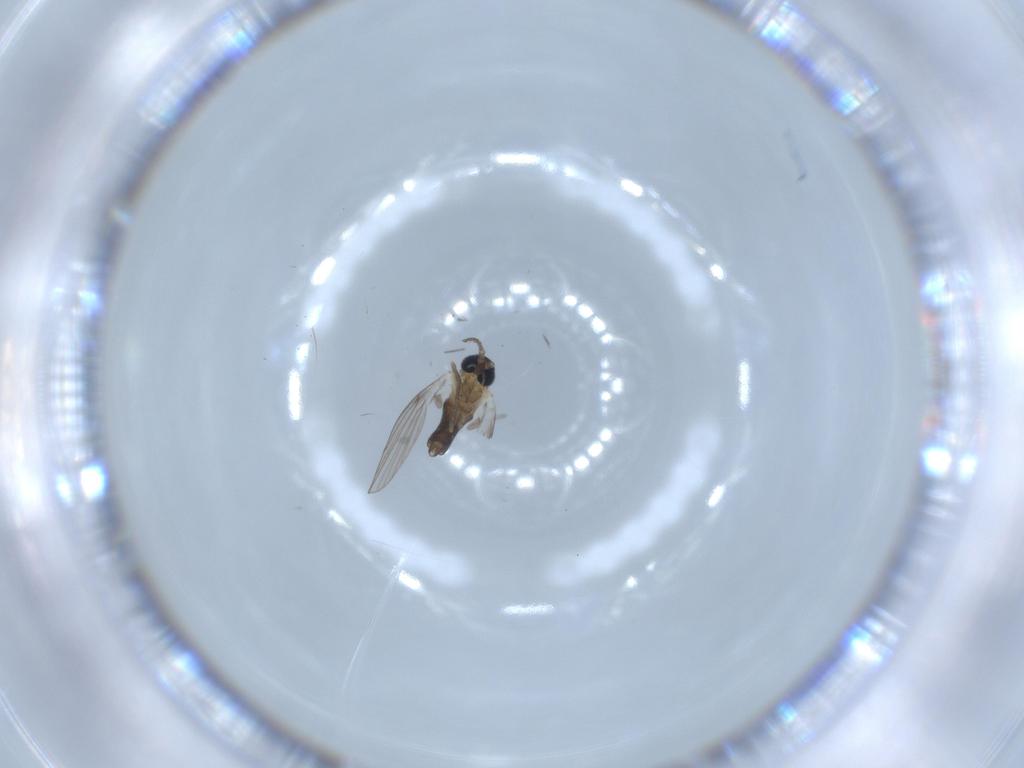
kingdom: Animalia
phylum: Arthropoda
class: Insecta
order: Diptera
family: Psychodidae
